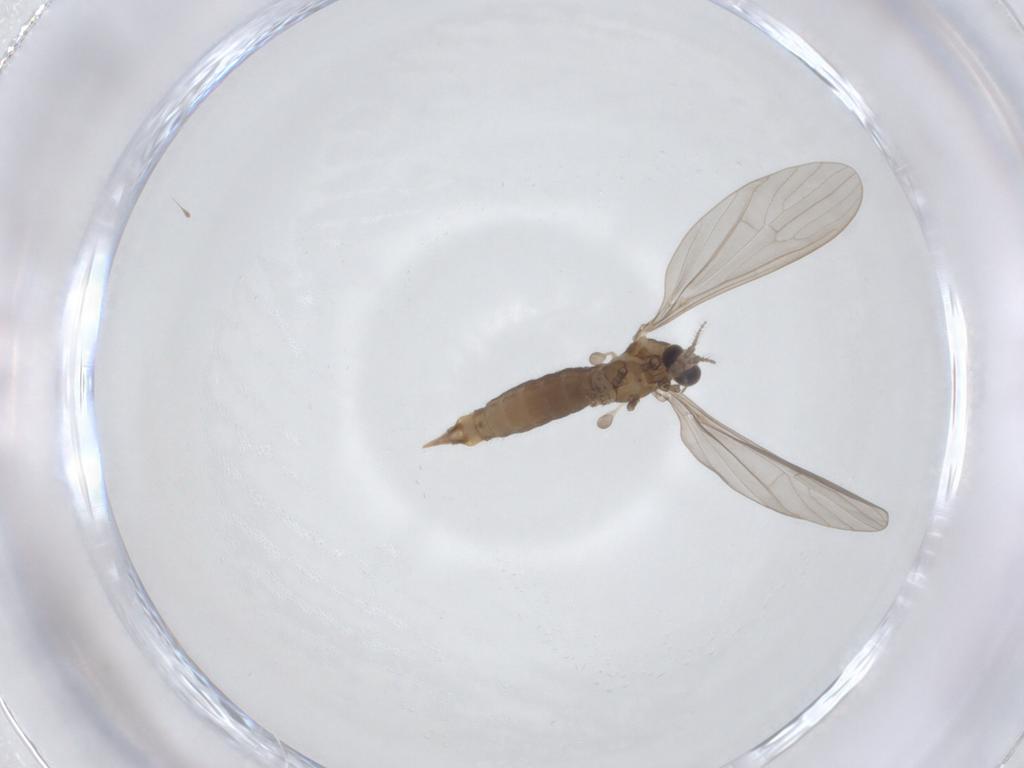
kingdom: Animalia
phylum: Arthropoda
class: Insecta
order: Diptera
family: Limoniidae
